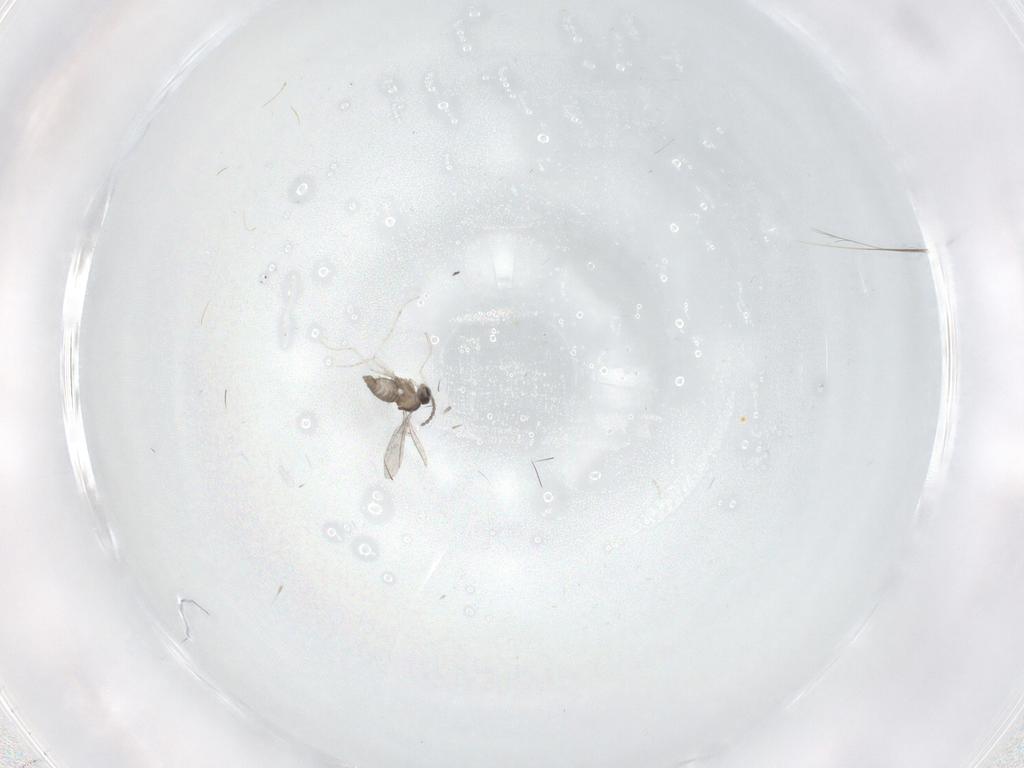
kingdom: Animalia
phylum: Arthropoda
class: Insecta
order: Diptera
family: Cecidomyiidae
